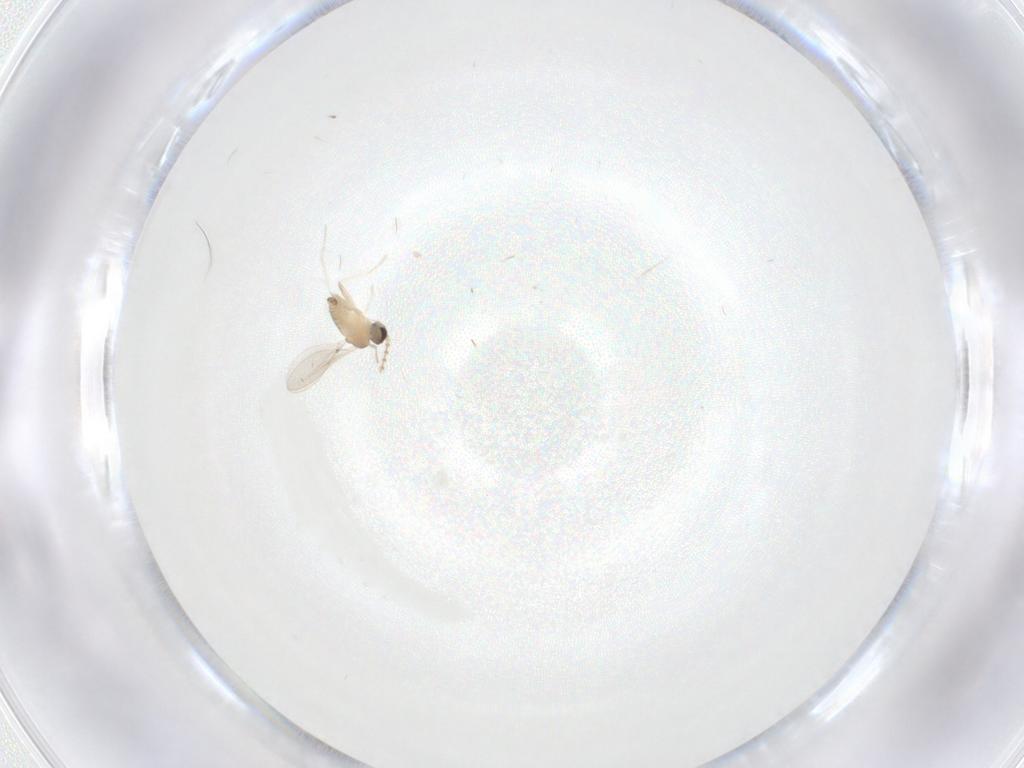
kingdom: Animalia
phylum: Arthropoda
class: Insecta
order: Diptera
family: Cecidomyiidae
